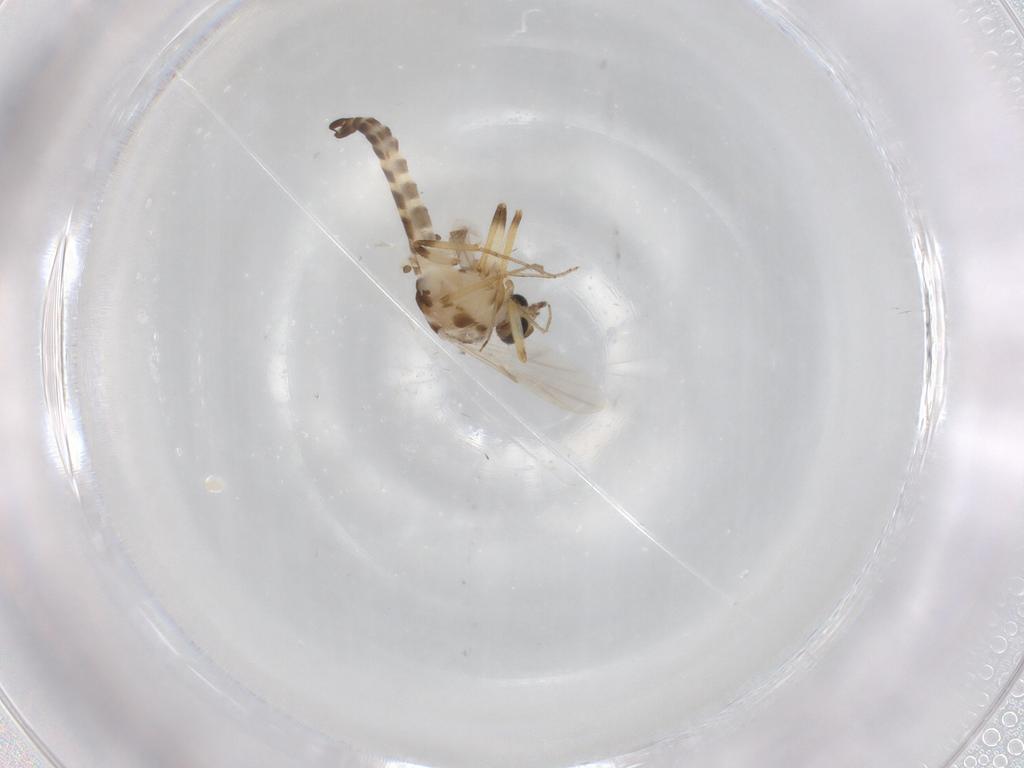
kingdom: Animalia
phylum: Arthropoda
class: Insecta
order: Diptera
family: Ceratopogonidae
